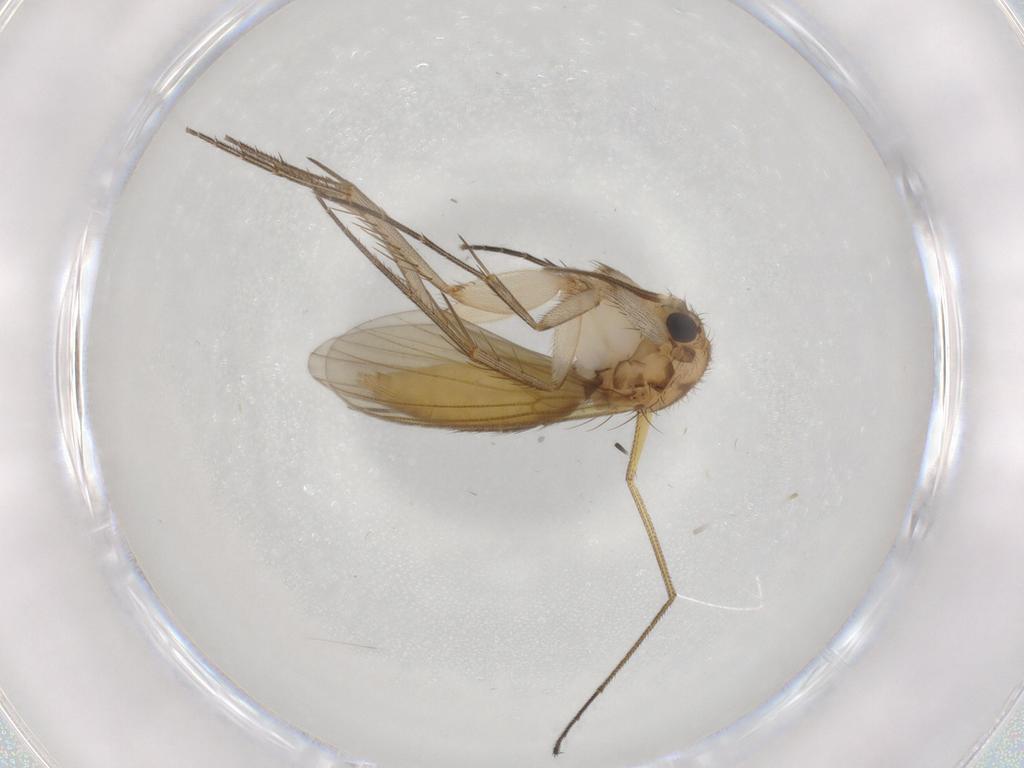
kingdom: Animalia
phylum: Arthropoda
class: Insecta
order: Diptera
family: Mycetophilidae
